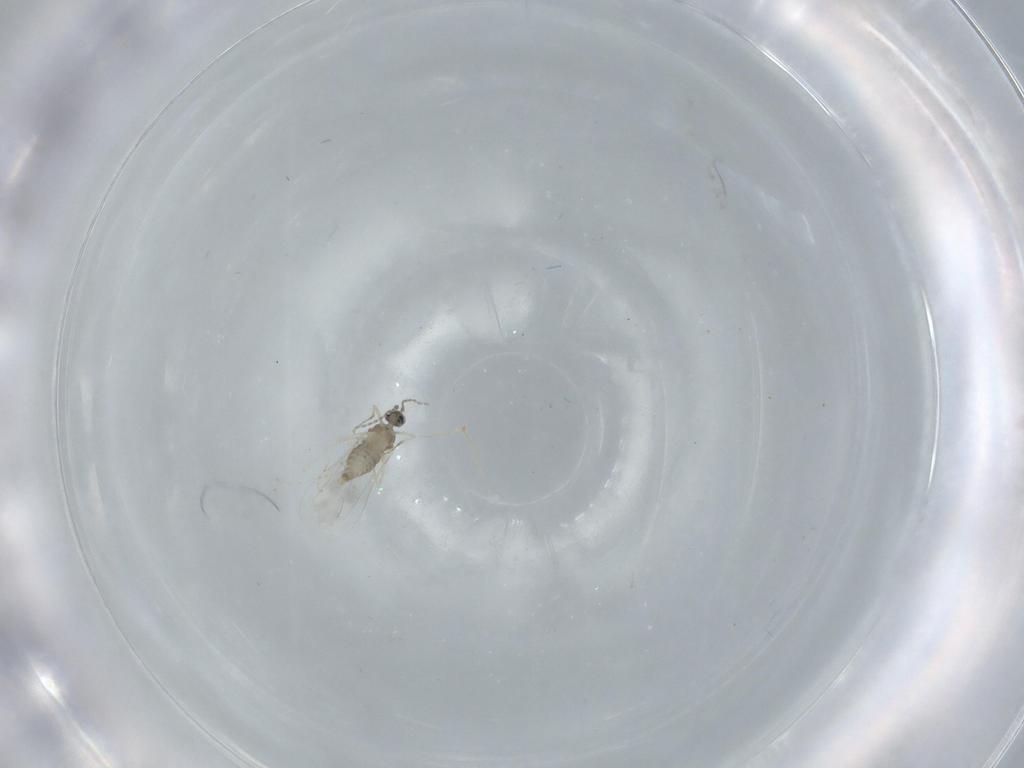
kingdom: Animalia
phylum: Arthropoda
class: Insecta
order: Diptera
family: Cecidomyiidae
